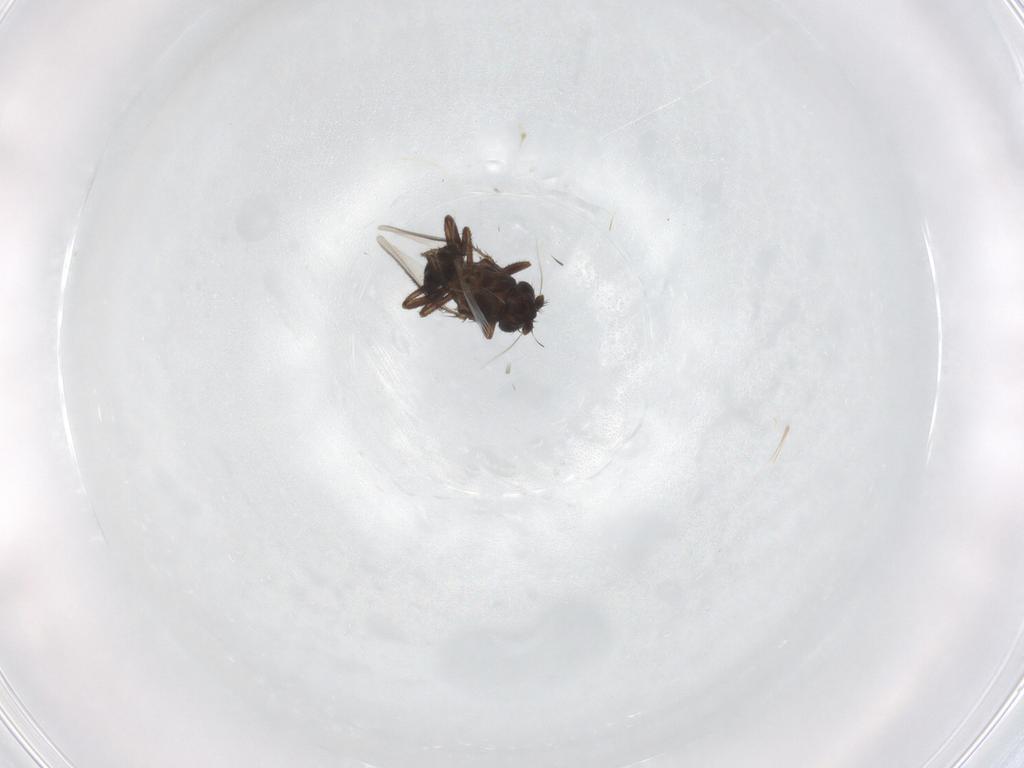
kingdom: Animalia
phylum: Arthropoda
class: Insecta
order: Diptera
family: Sphaeroceridae
